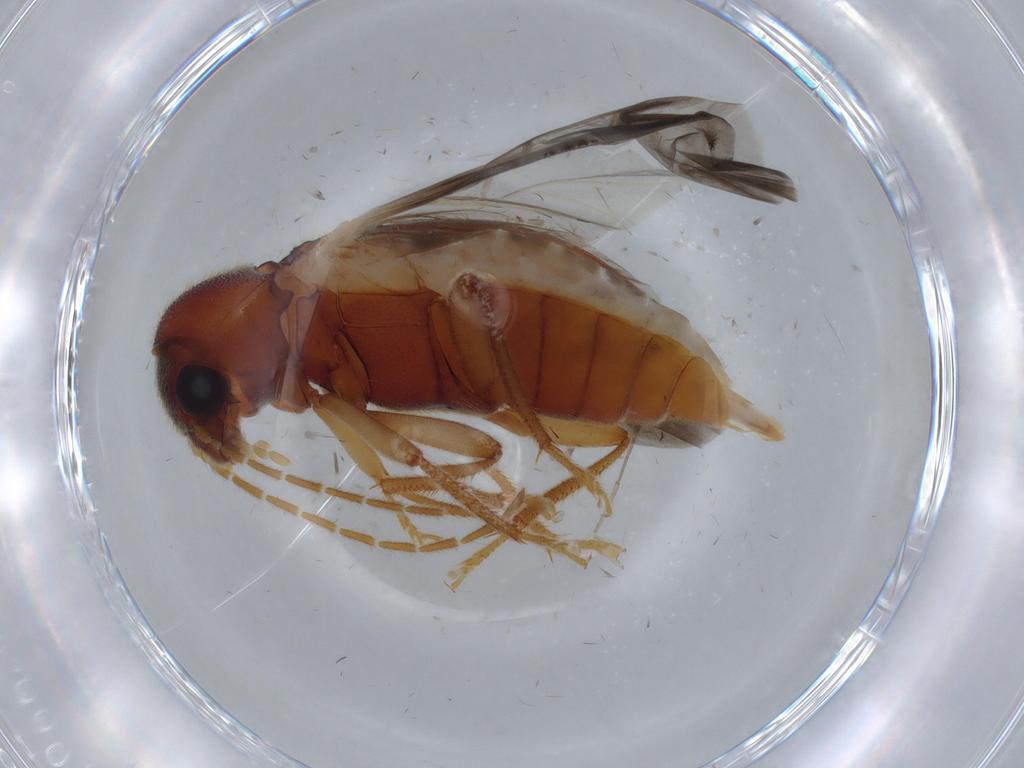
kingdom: Animalia
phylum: Arthropoda
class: Insecta
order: Coleoptera
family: Ptilodactylidae
